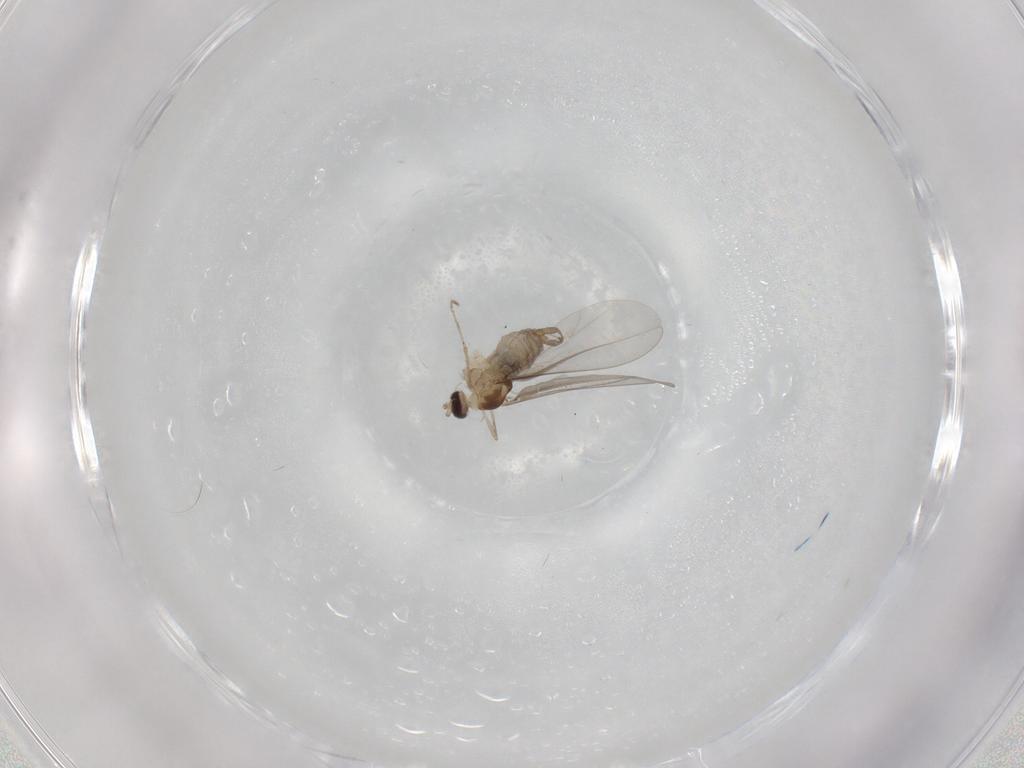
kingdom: Animalia
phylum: Arthropoda
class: Insecta
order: Diptera
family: Cecidomyiidae
